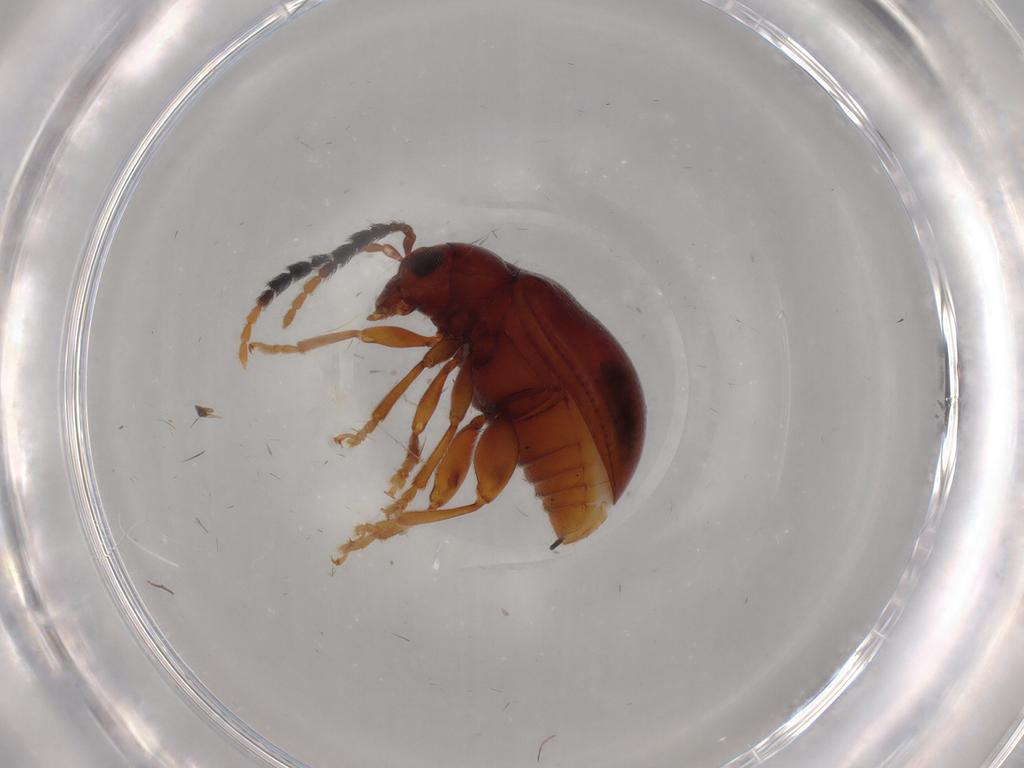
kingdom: Animalia
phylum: Arthropoda
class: Insecta
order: Coleoptera
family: Chrysomelidae
